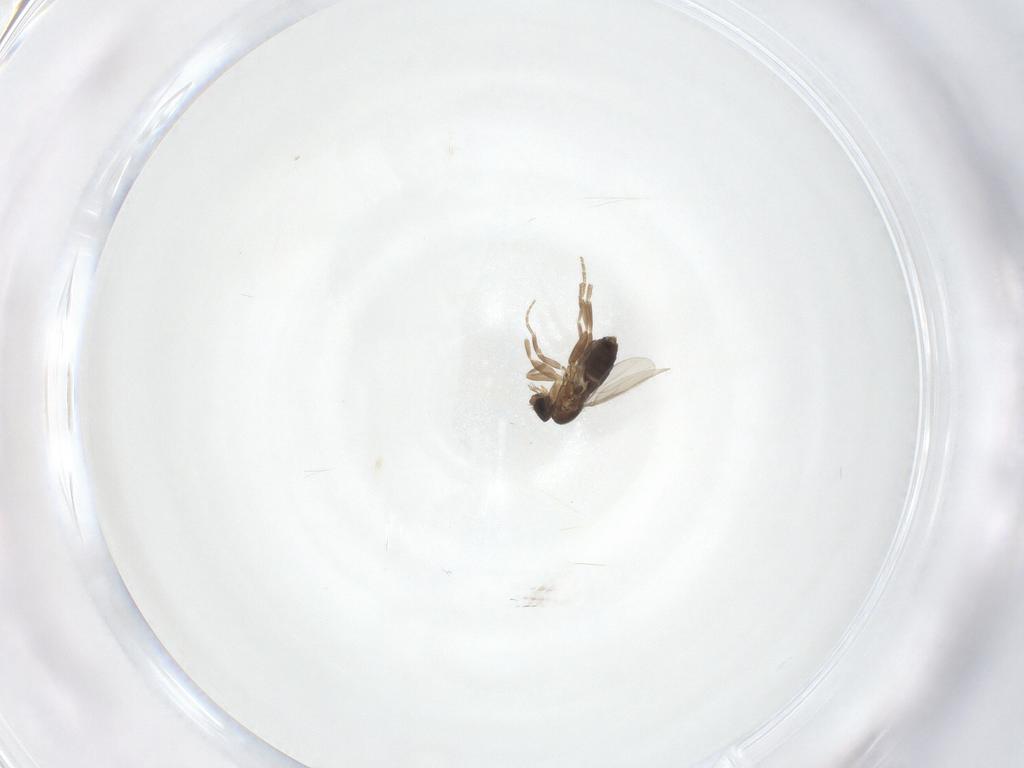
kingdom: Animalia
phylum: Arthropoda
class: Insecta
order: Diptera
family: Phoridae
